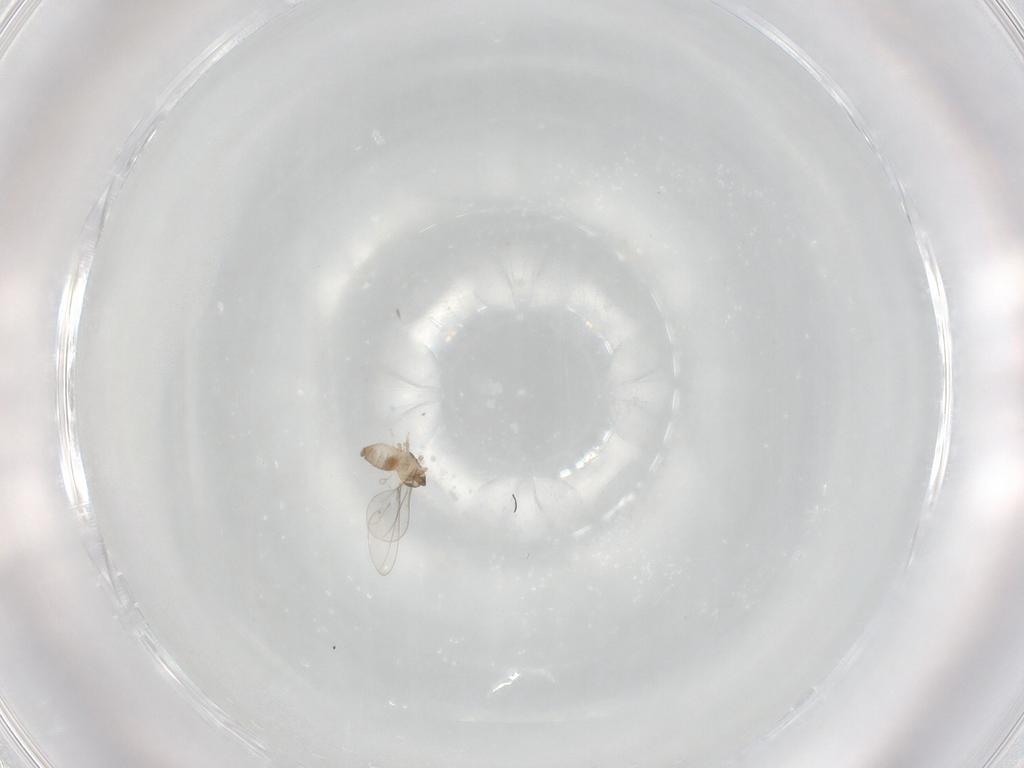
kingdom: Animalia
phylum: Arthropoda
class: Insecta
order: Diptera
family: Cecidomyiidae
